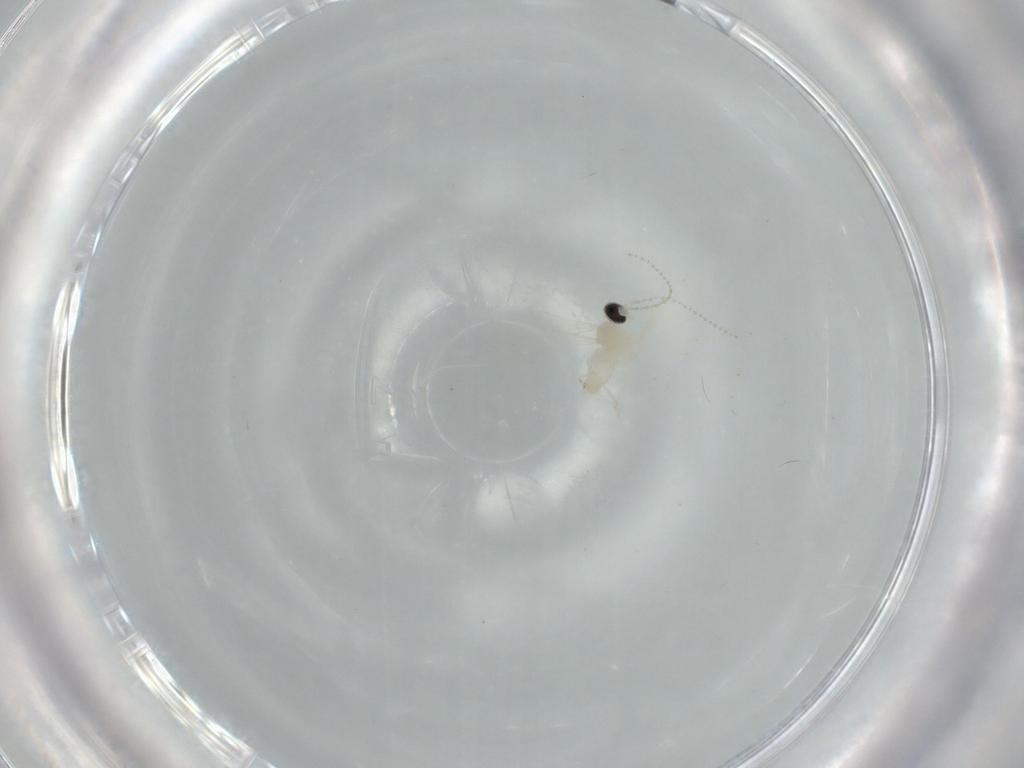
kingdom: Animalia
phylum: Arthropoda
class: Insecta
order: Diptera
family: Cecidomyiidae
